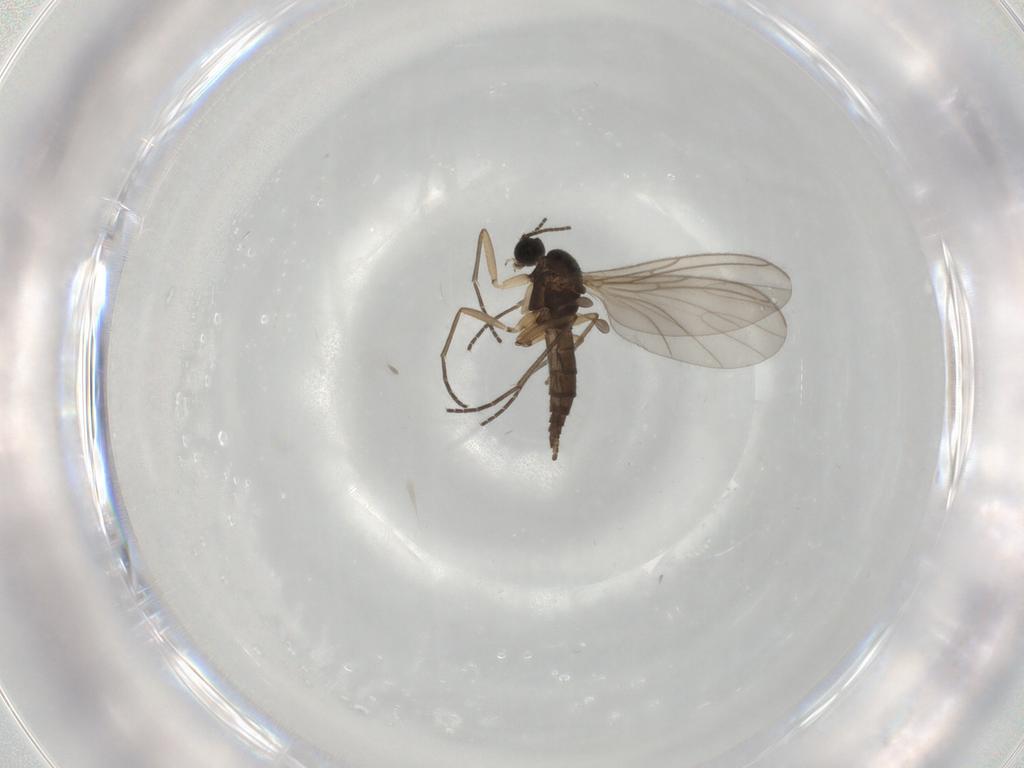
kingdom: Animalia
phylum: Arthropoda
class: Insecta
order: Diptera
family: Sciaridae
